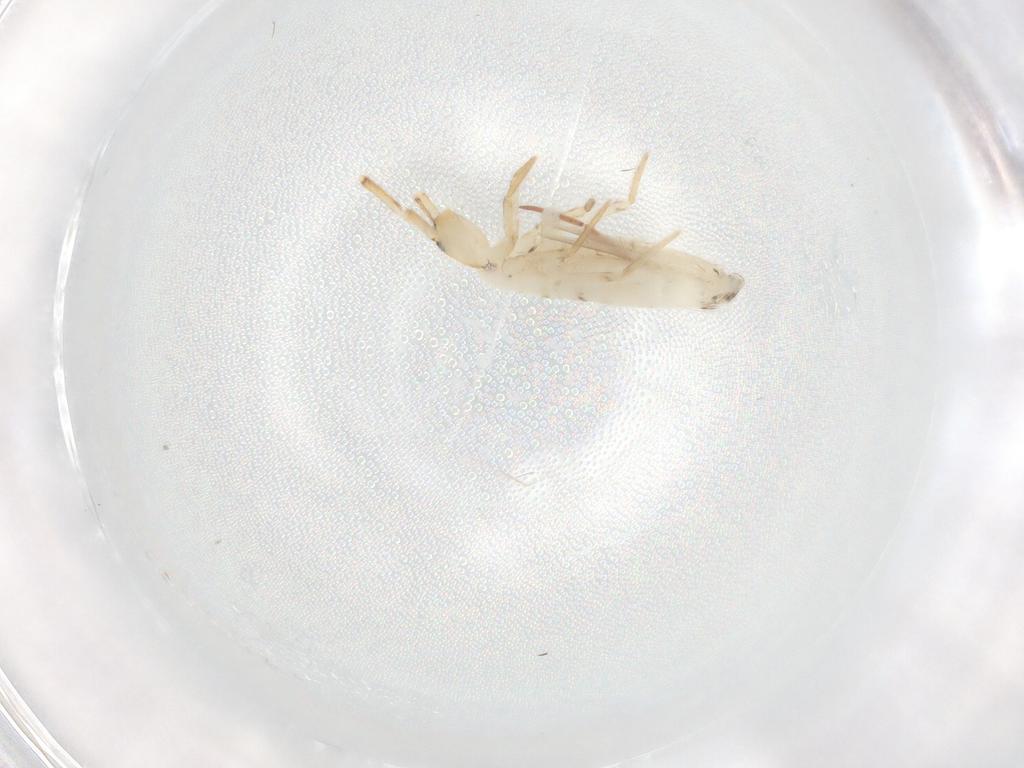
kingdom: Animalia
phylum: Arthropoda
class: Collembola
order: Entomobryomorpha
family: Entomobryidae
